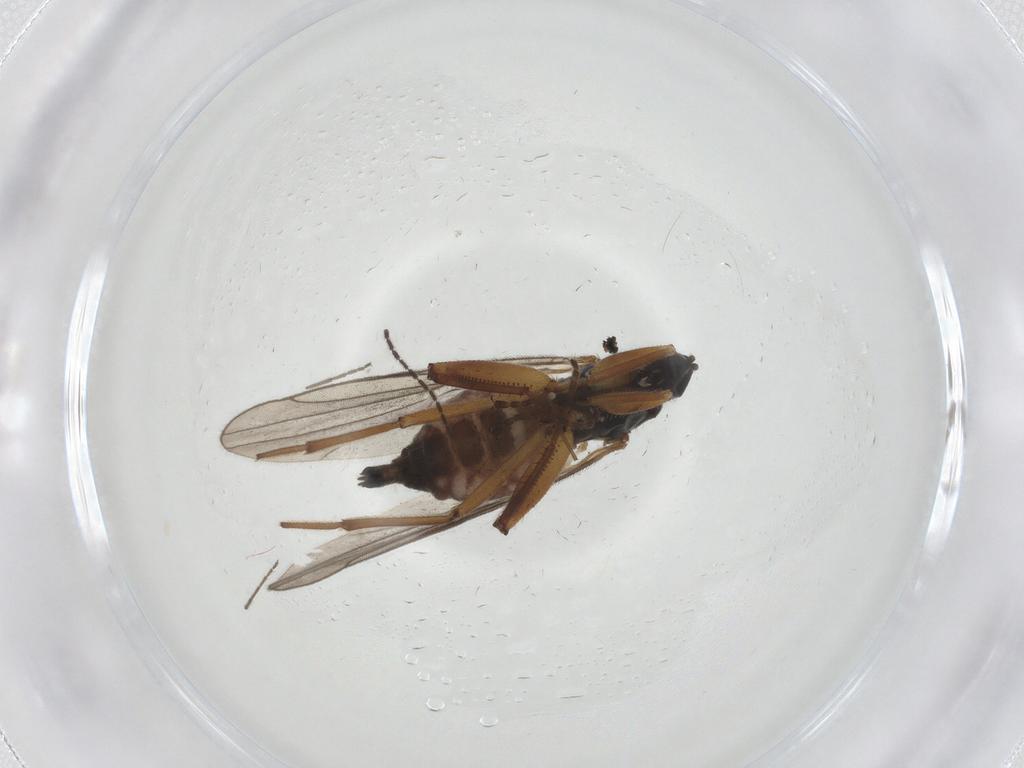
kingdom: Animalia
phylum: Arthropoda
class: Insecta
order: Diptera
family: Hybotidae
